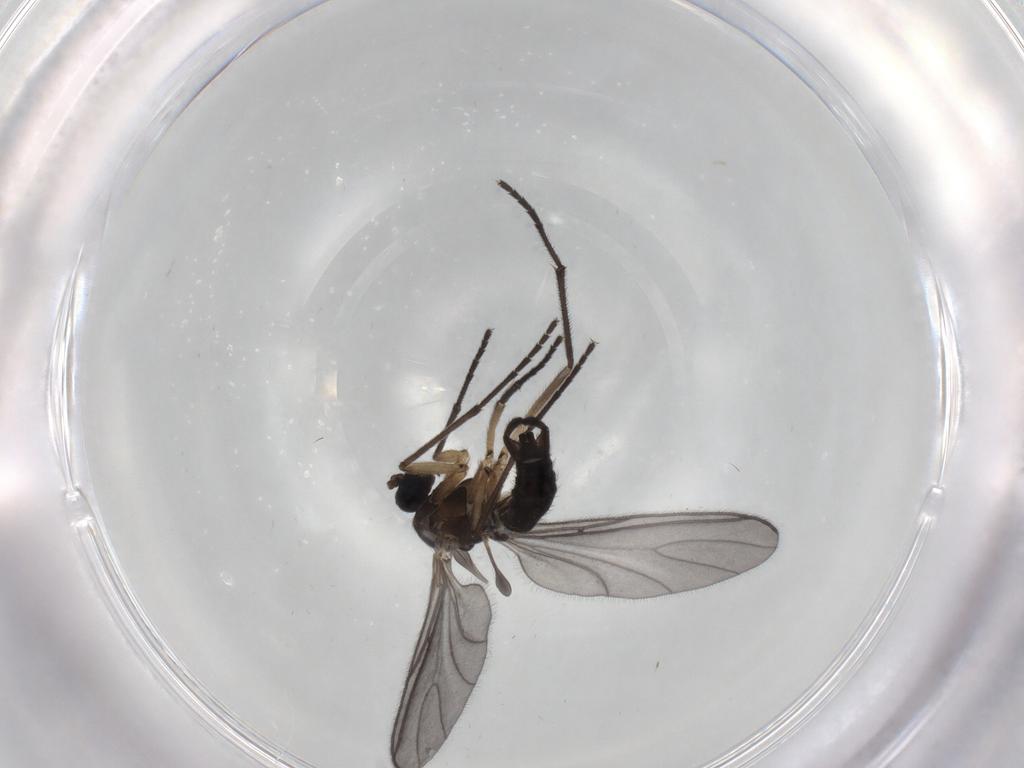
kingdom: Animalia
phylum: Arthropoda
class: Insecta
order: Diptera
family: Sciaridae
